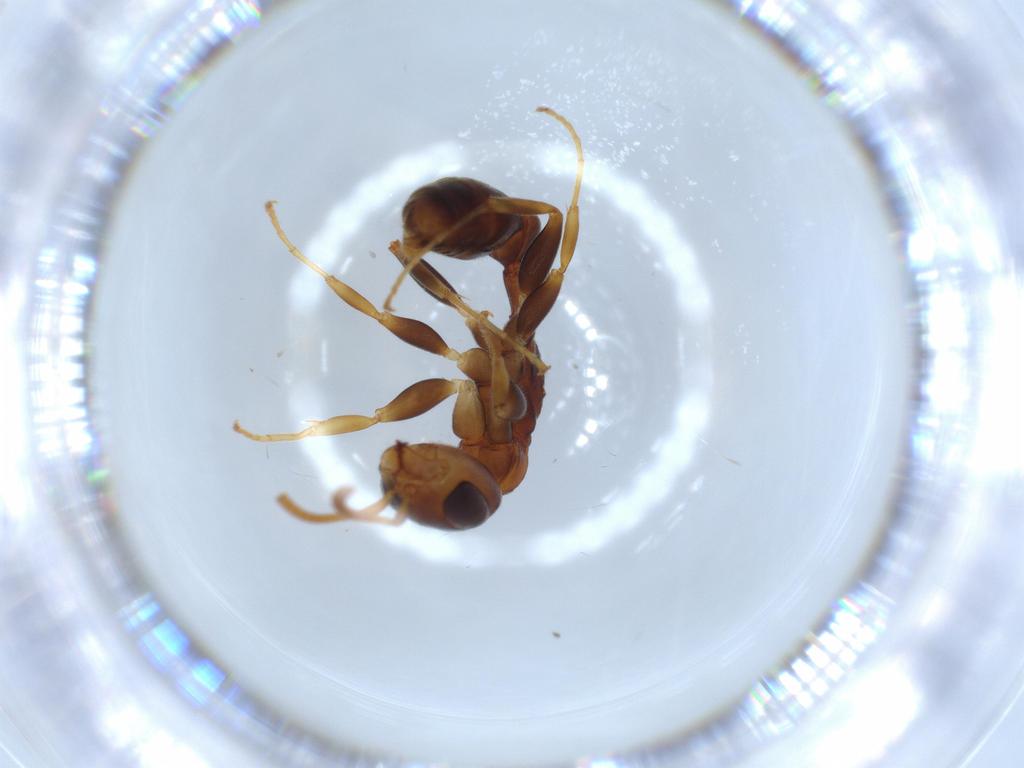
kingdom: Animalia
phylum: Arthropoda
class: Insecta
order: Hymenoptera
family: Formicidae
